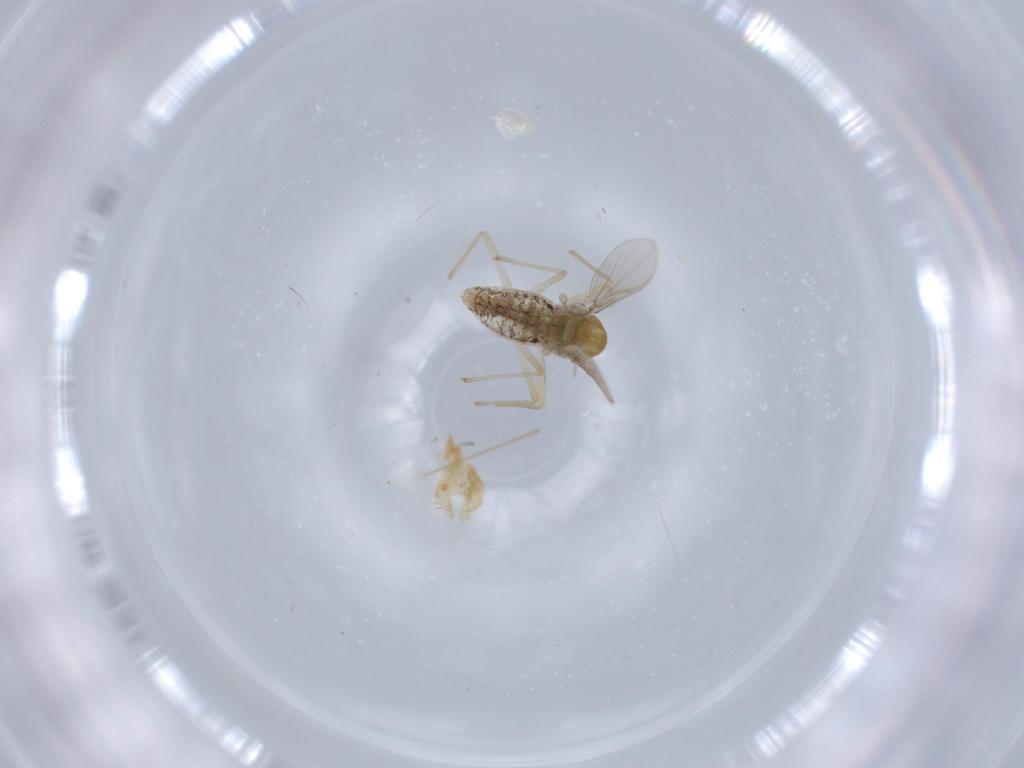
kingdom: Animalia
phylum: Arthropoda
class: Insecta
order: Diptera
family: Chironomidae
